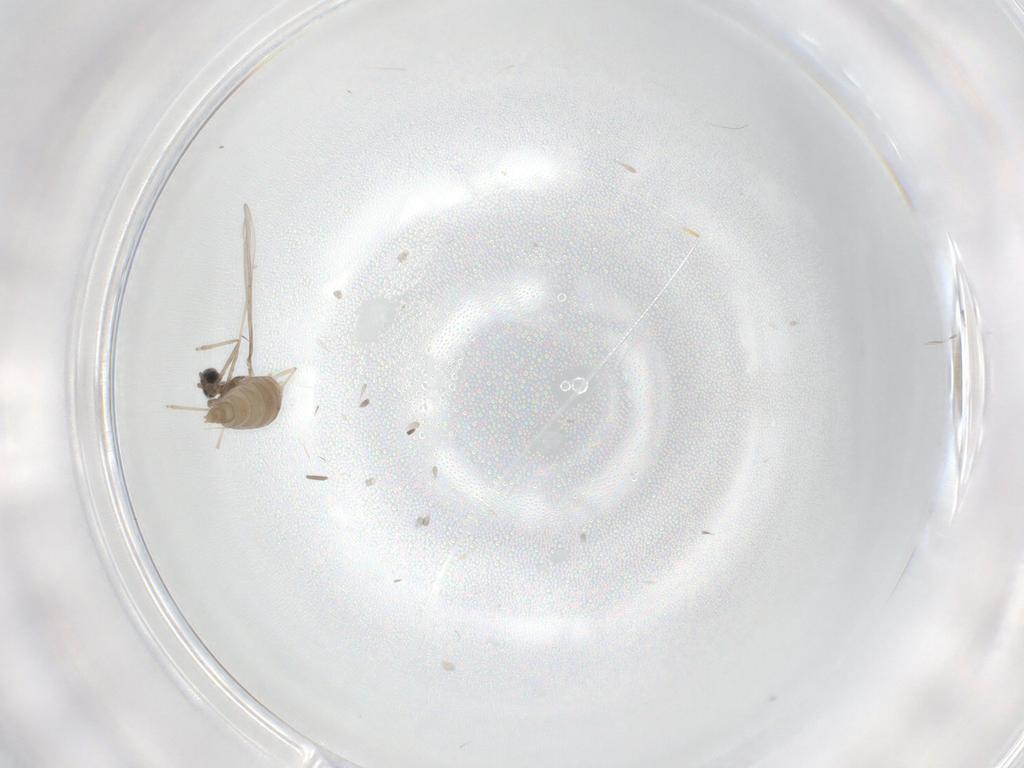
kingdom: Animalia
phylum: Arthropoda
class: Insecta
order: Diptera
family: Cecidomyiidae
